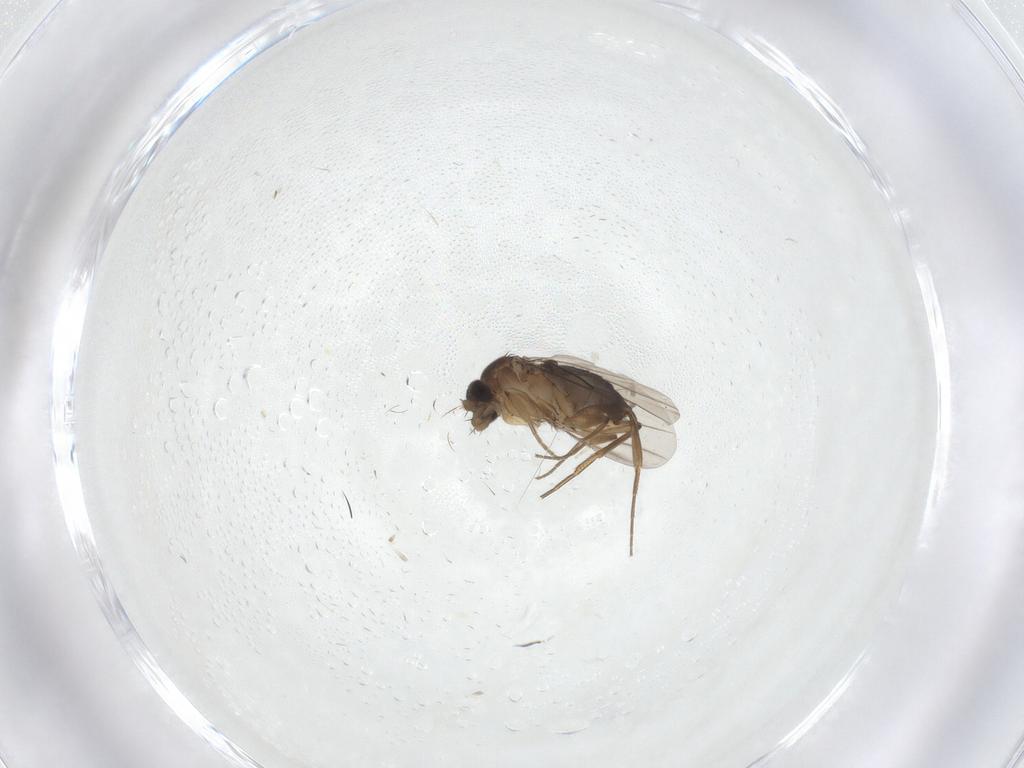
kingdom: Animalia
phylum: Arthropoda
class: Insecta
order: Diptera
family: Phoridae
